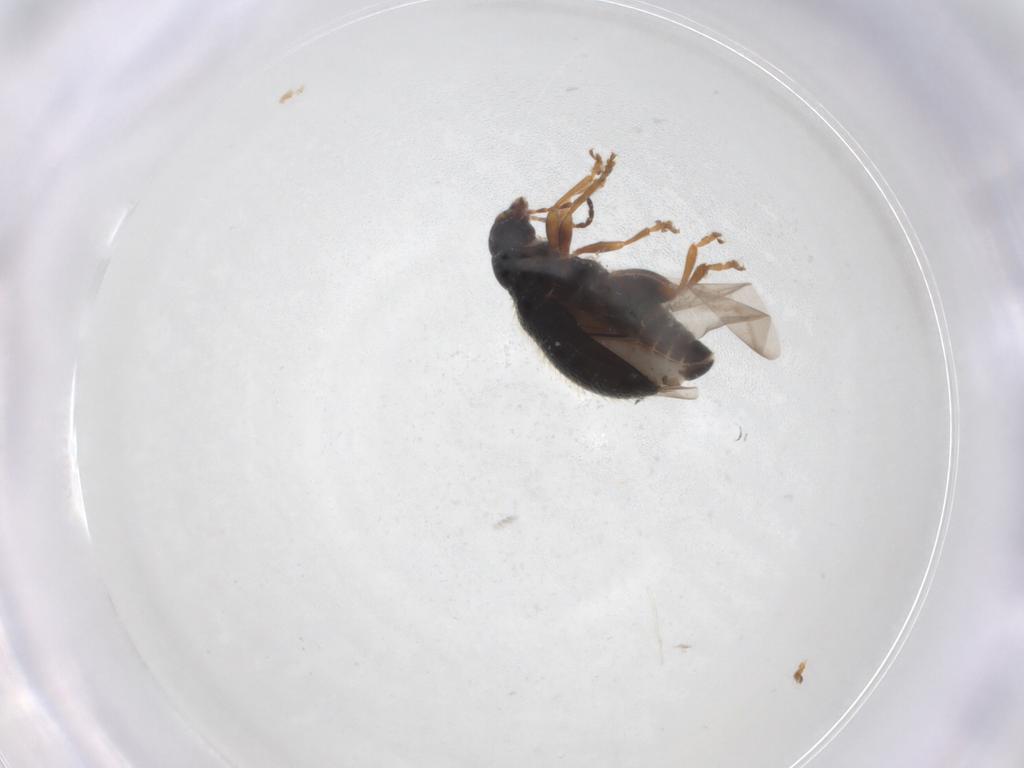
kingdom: Animalia
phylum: Arthropoda
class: Insecta
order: Coleoptera
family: Chrysomelidae
